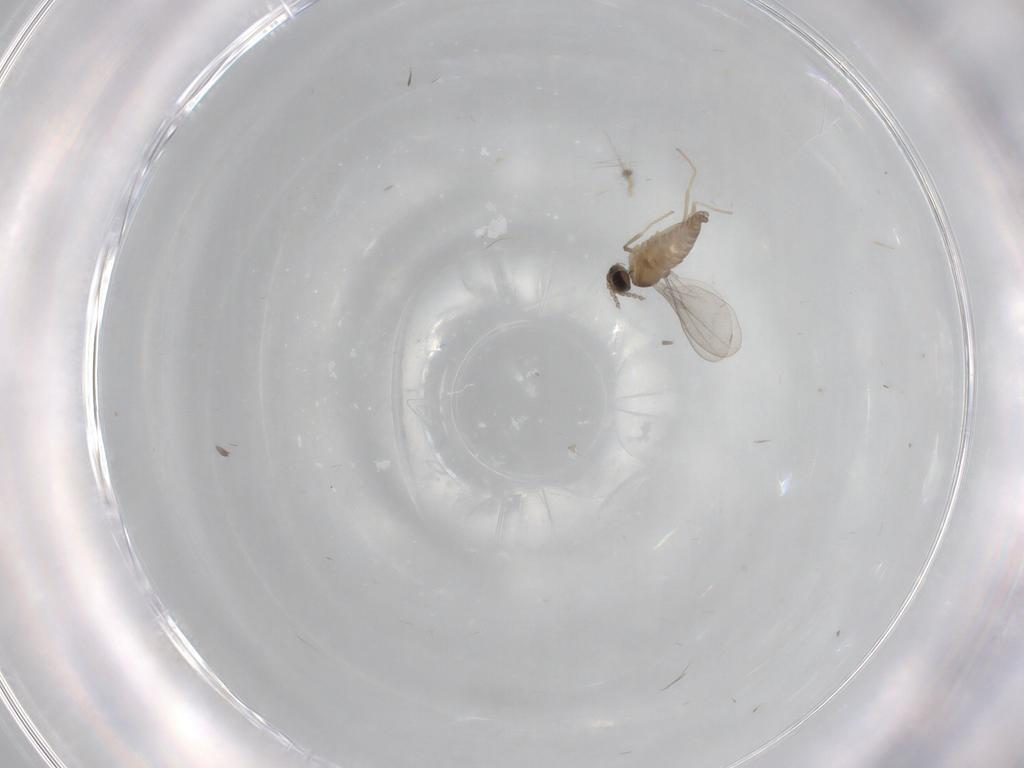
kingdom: Animalia
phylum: Arthropoda
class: Insecta
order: Diptera
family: Cecidomyiidae
